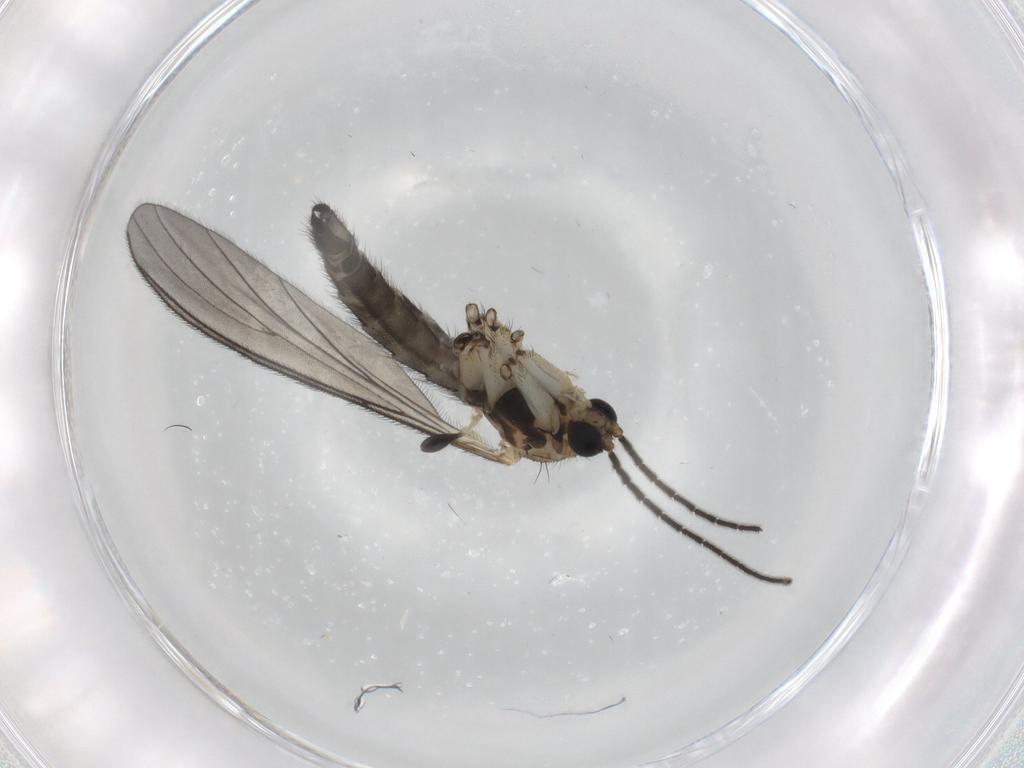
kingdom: Animalia
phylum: Arthropoda
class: Insecta
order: Diptera
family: Sciaridae
